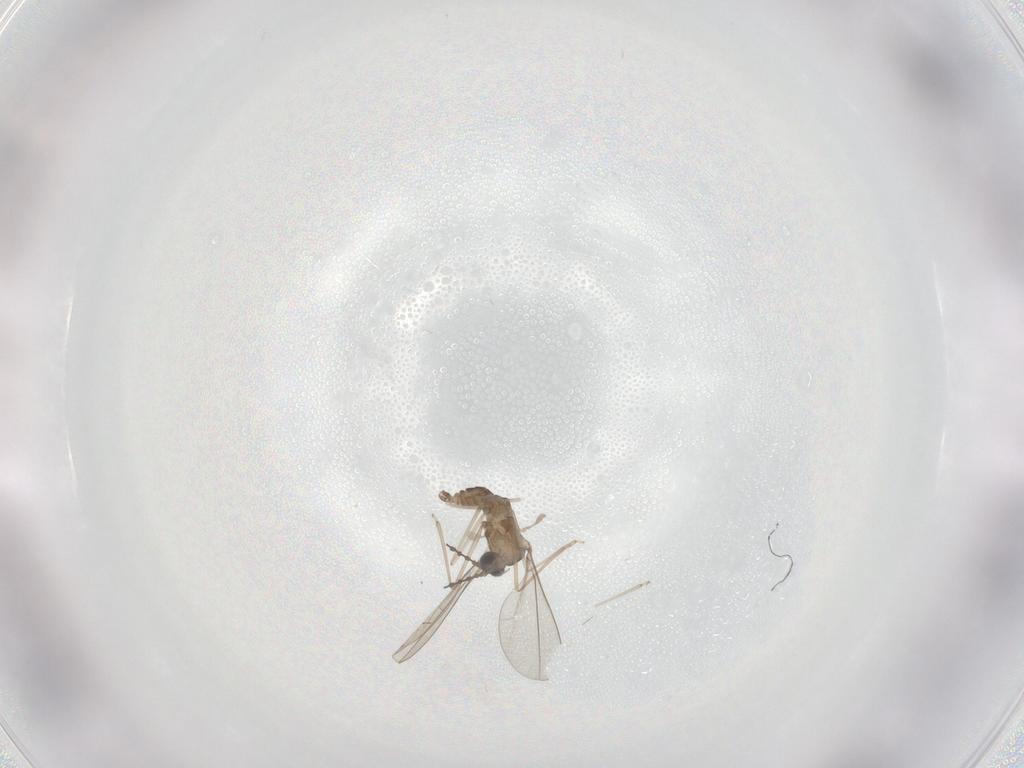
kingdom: Animalia
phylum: Arthropoda
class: Insecta
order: Diptera
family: Cecidomyiidae
